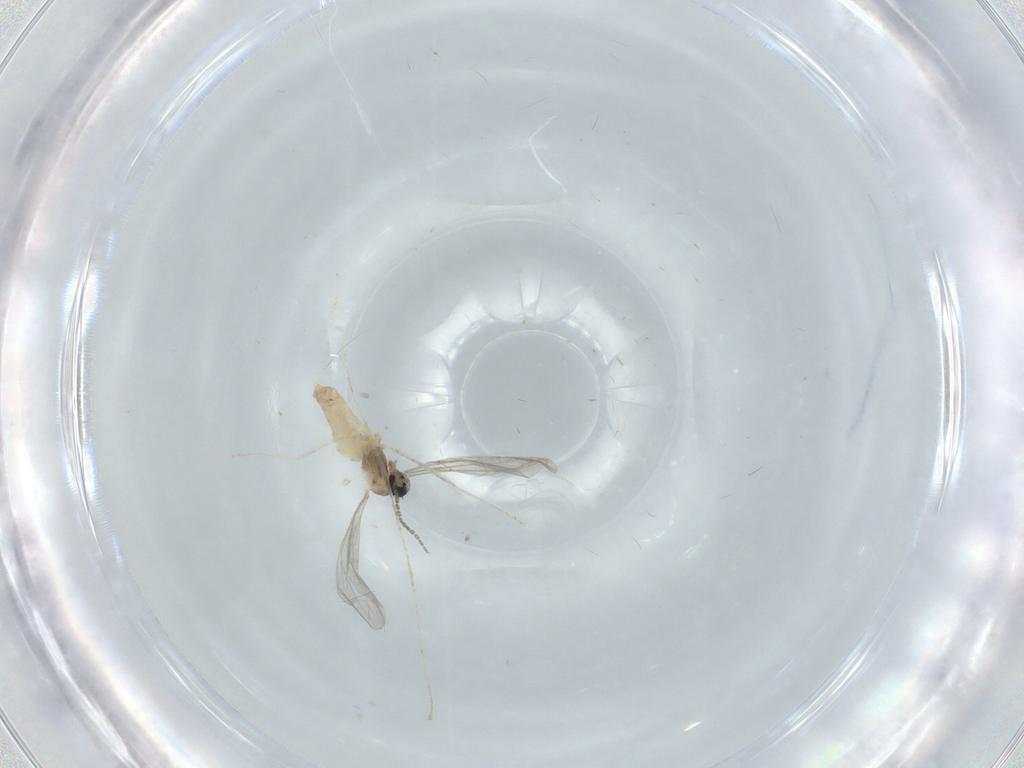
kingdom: Animalia
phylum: Arthropoda
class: Insecta
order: Diptera
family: Cecidomyiidae
